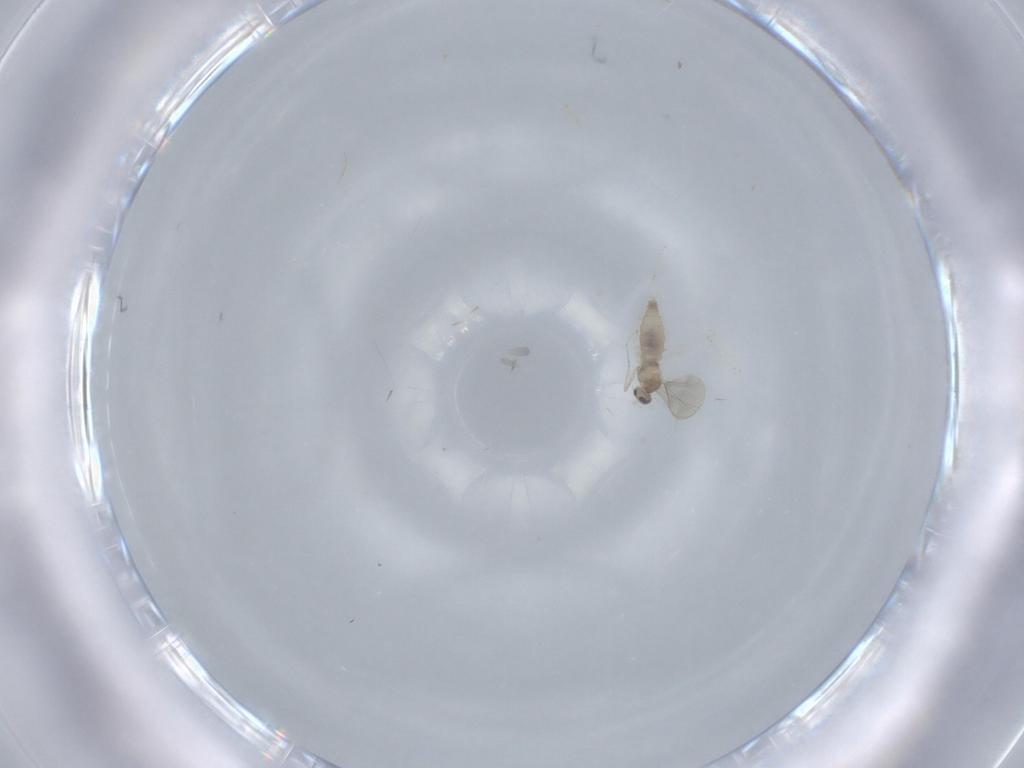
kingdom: Animalia
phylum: Arthropoda
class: Insecta
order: Diptera
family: Cecidomyiidae
